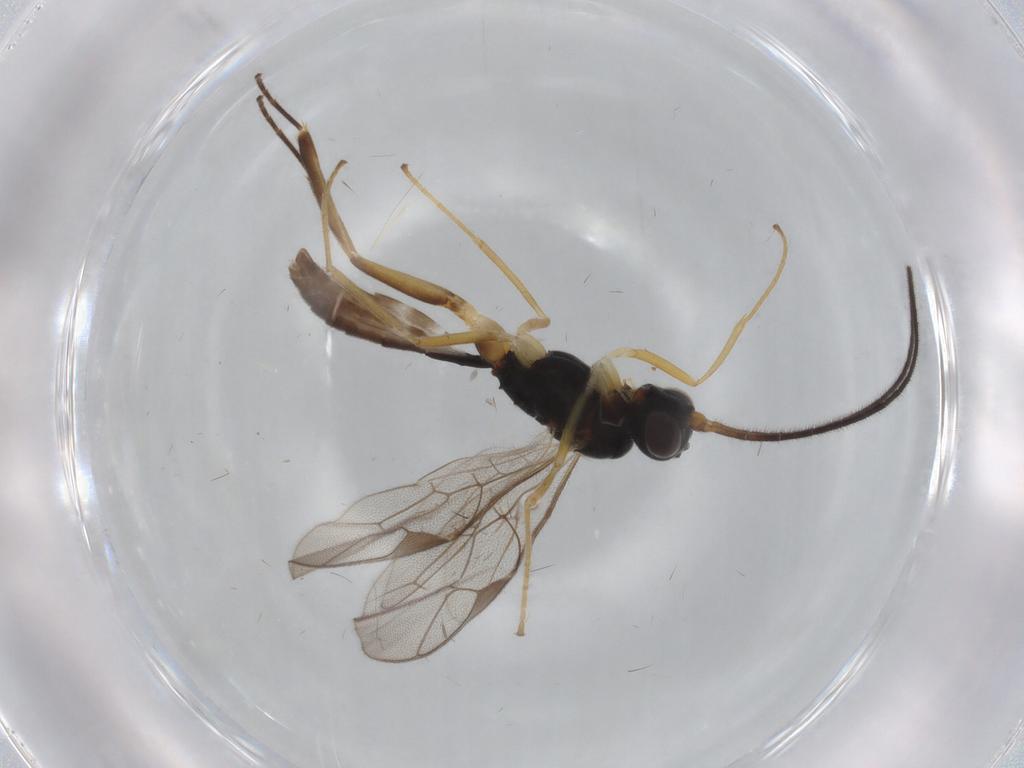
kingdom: Animalia
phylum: Arthropoda
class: Insecta
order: Hymenoptera
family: Ichneumonidae
